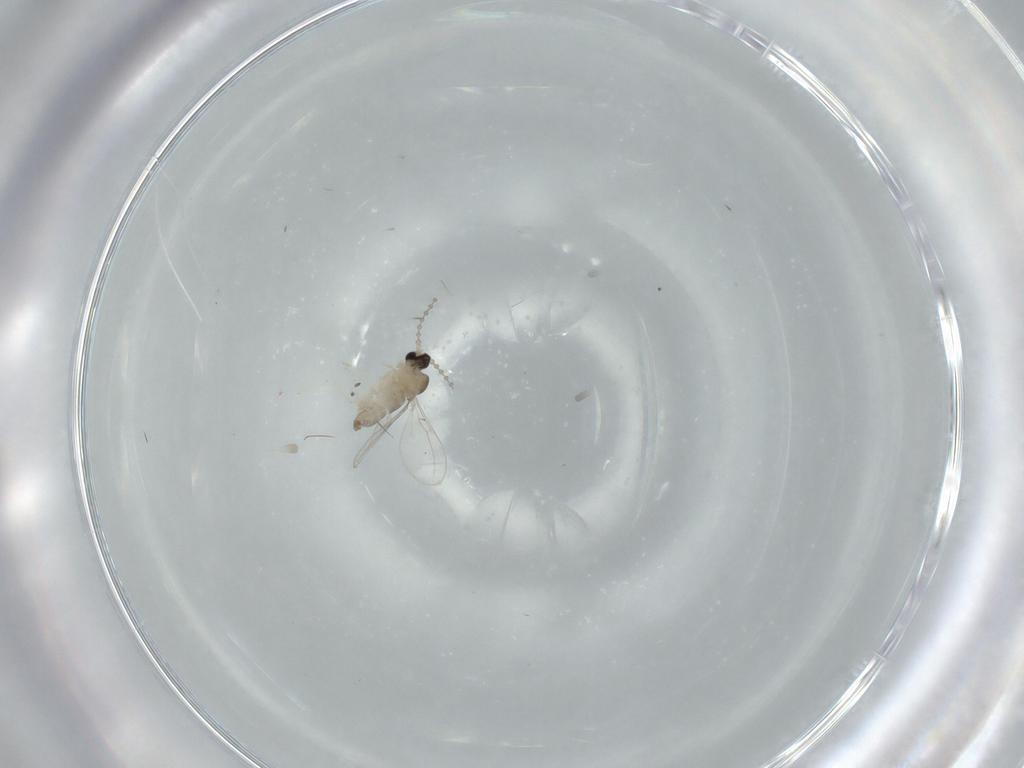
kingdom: Animalia
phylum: Arthropoda
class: Insecta
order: Diptera
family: Cecidomyiidae
